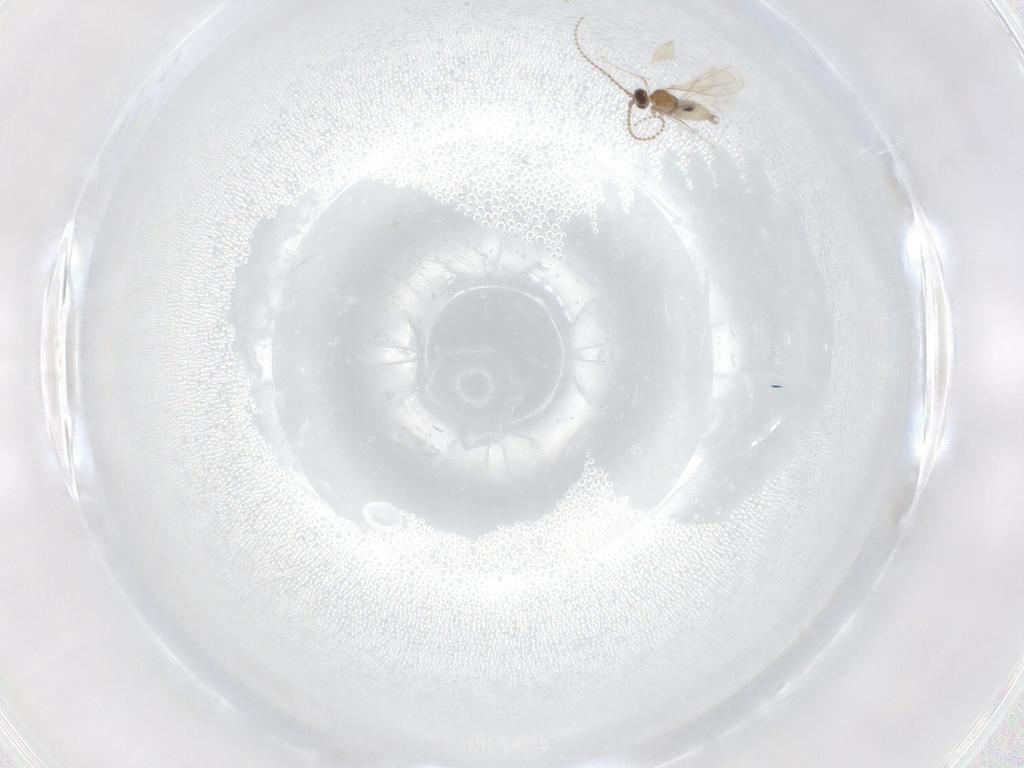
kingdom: Animalia
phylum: Arthropoda
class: Insecta
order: Diptera
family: Cecidomyiidae
